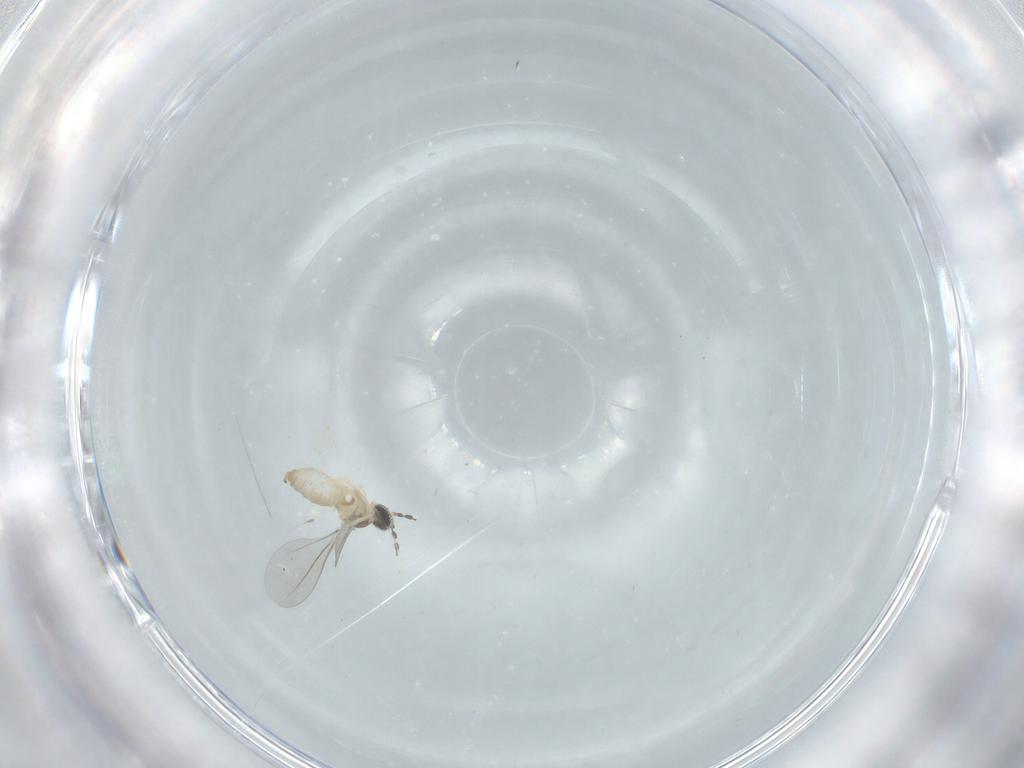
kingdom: Animalia
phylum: Arthropoda
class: Insecta
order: Diptera
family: Cecidomyiidae
